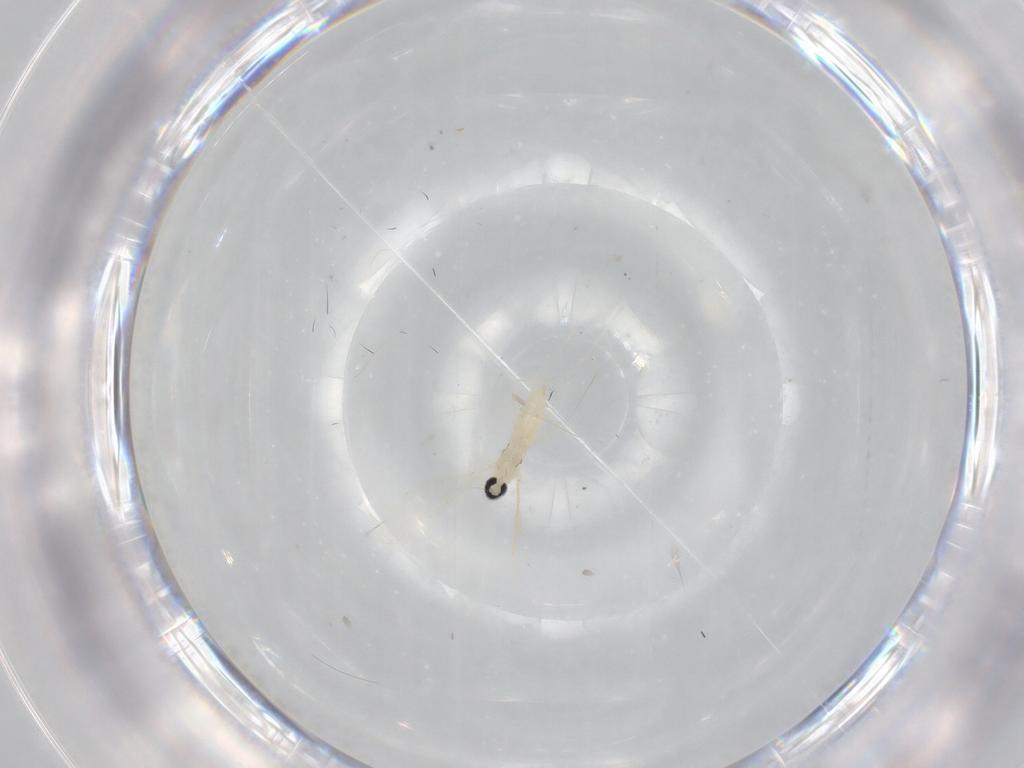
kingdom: Animalia
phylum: Arthropoda
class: Insecta
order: Diptera
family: Cecidomyiidae
